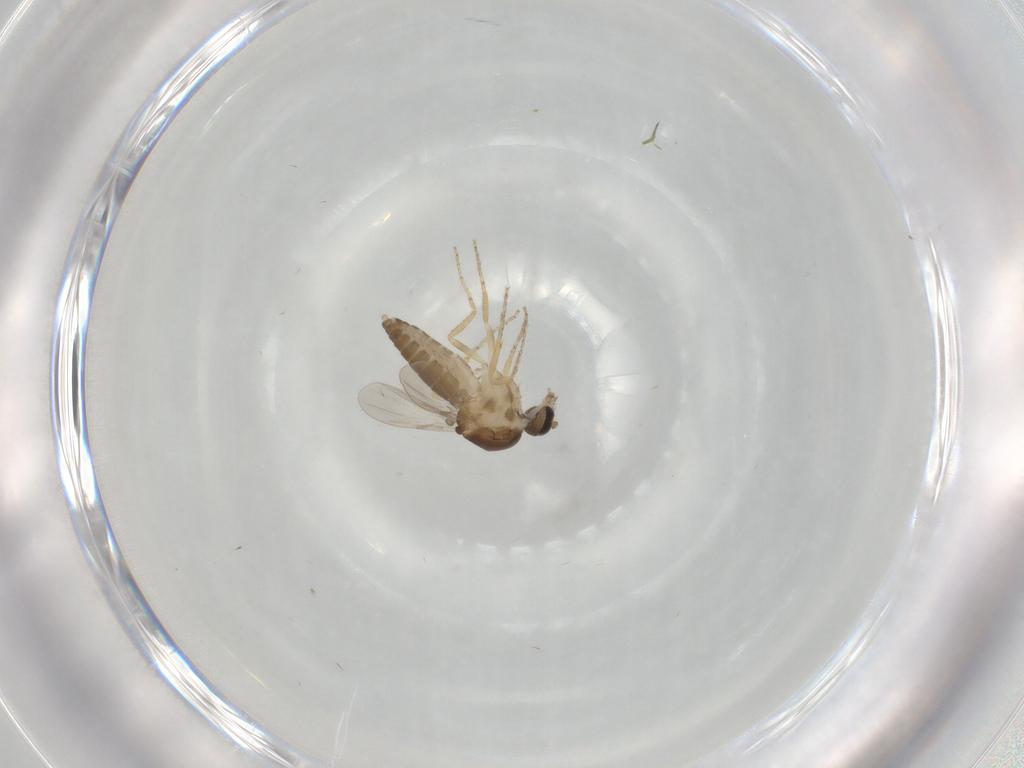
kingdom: Animalia
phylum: Arthropoda
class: Insecta
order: Diptera
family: Ceratopogonidae
